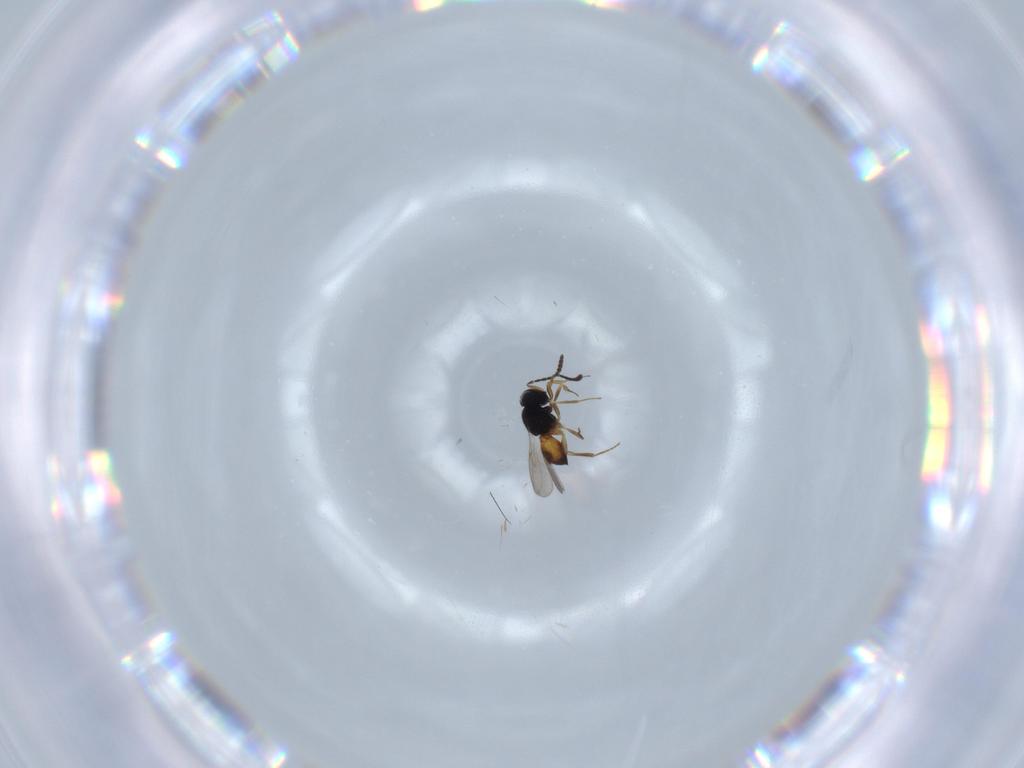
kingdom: Animalia
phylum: Arthropoda
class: Insecta
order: Hymenoptera
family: Scelionidae
